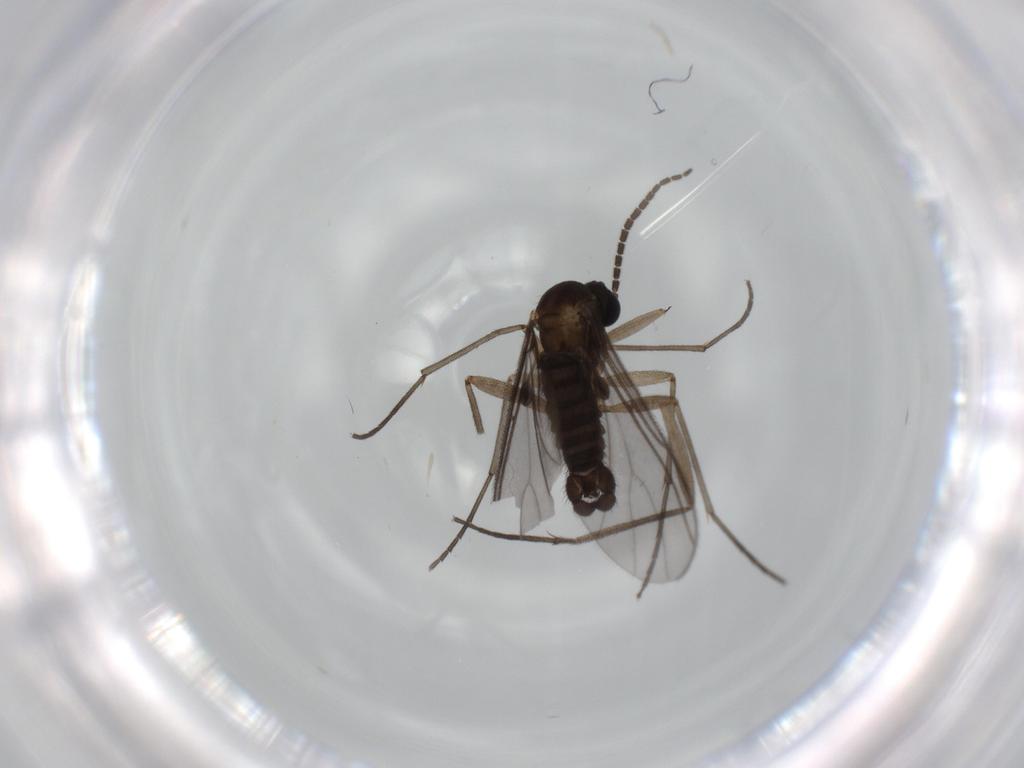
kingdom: Animalia
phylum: Arthropoda
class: Insecta
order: Diptera
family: Sciaridae
